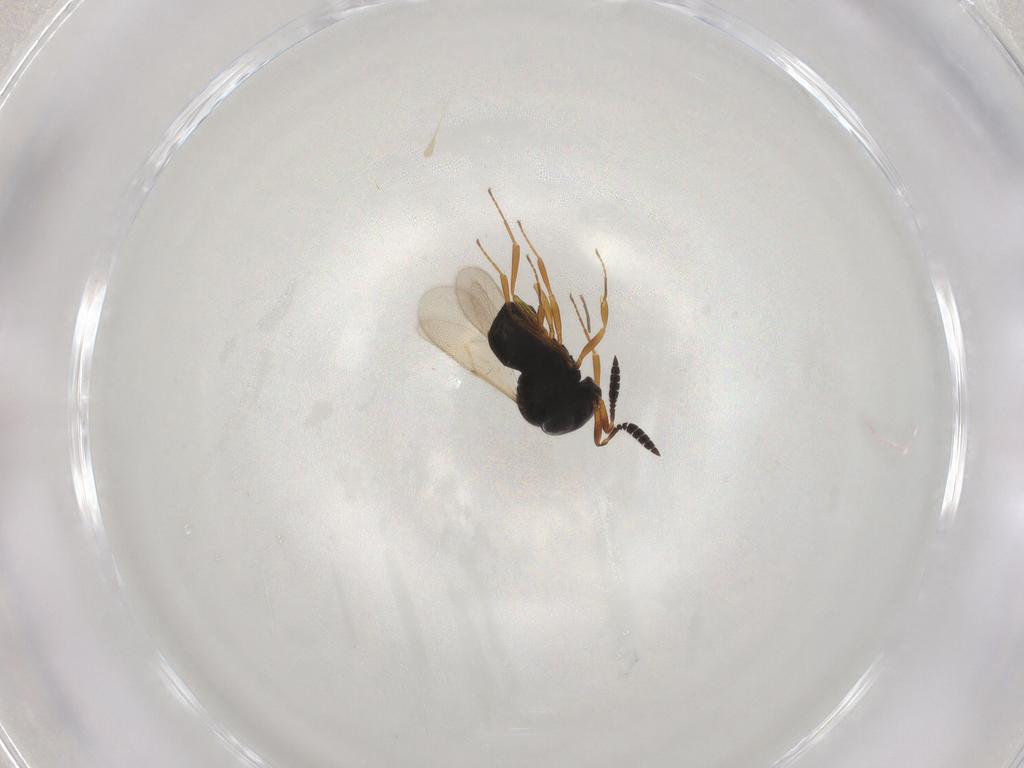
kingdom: Animalia
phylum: Arthropoda
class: Insecta
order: Hymenoptera
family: Scelionidae
